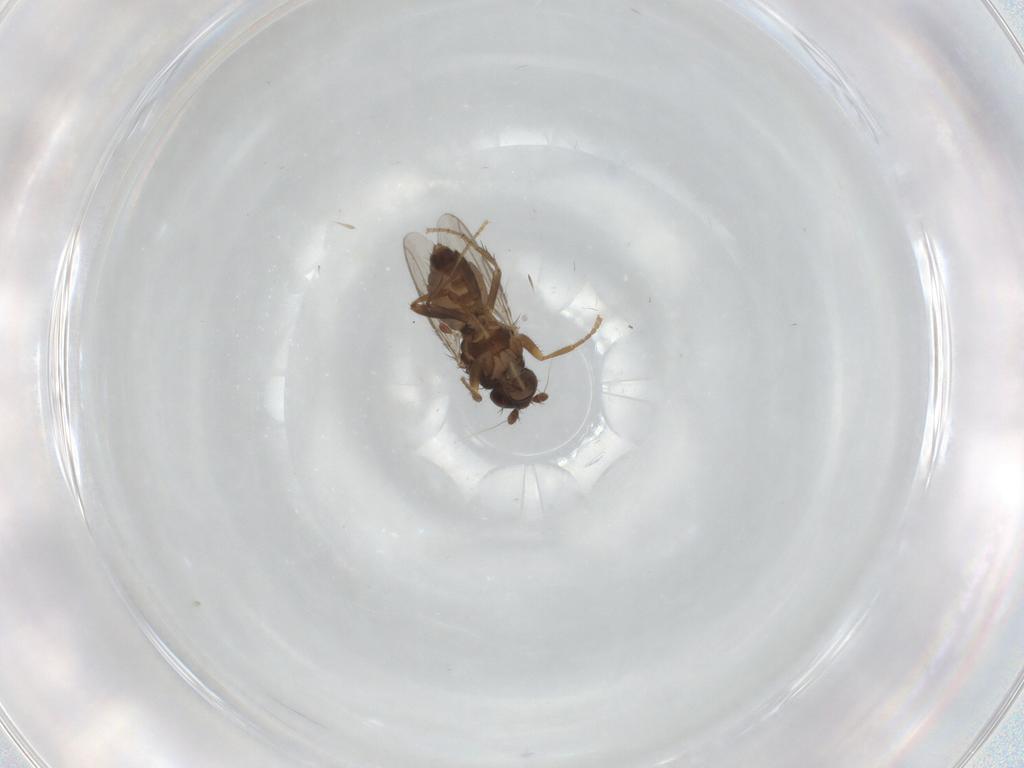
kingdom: Animalia
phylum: Arthropoda
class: Insecta
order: Diptera
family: Sphaeroceridae
